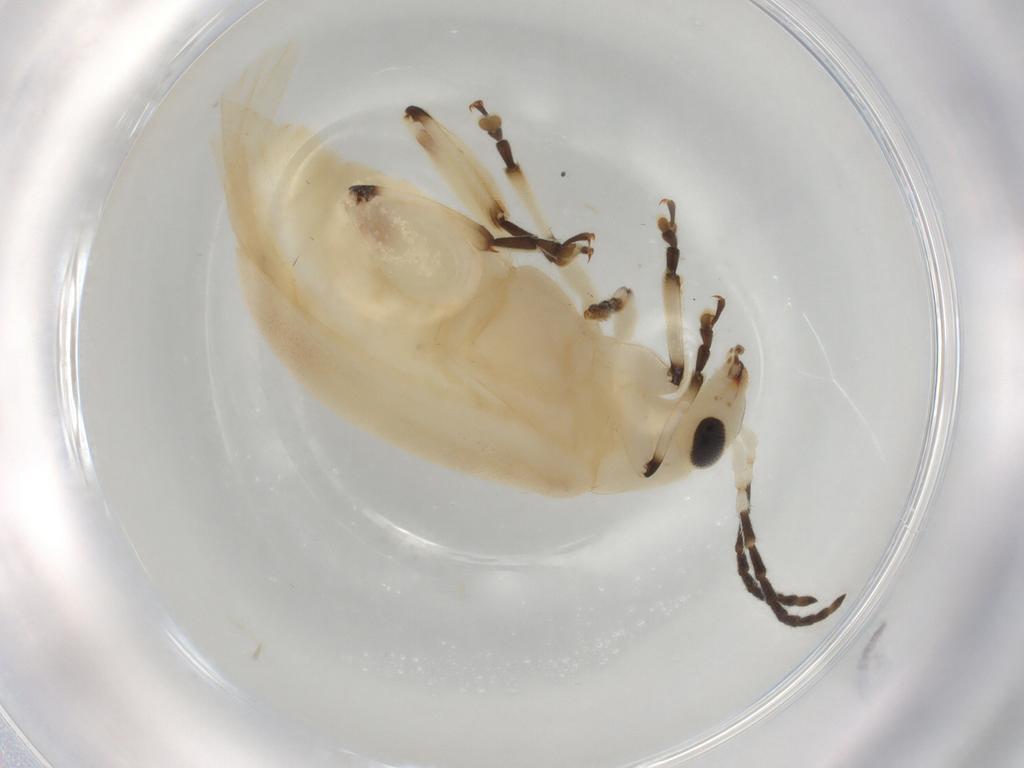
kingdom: Animalia
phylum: Arthropoda
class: Insecta
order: Coleoptera
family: Chrysomelidae
